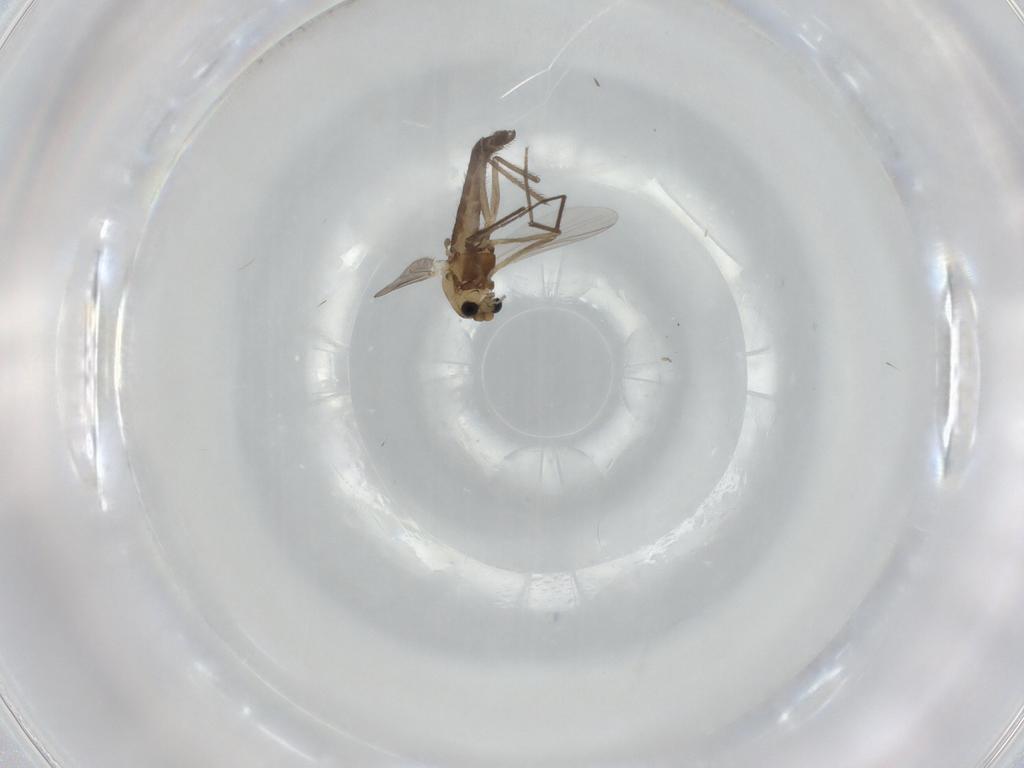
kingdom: Animalia
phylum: Arthropoda
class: Insecta
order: Diptera
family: Chironomidae
